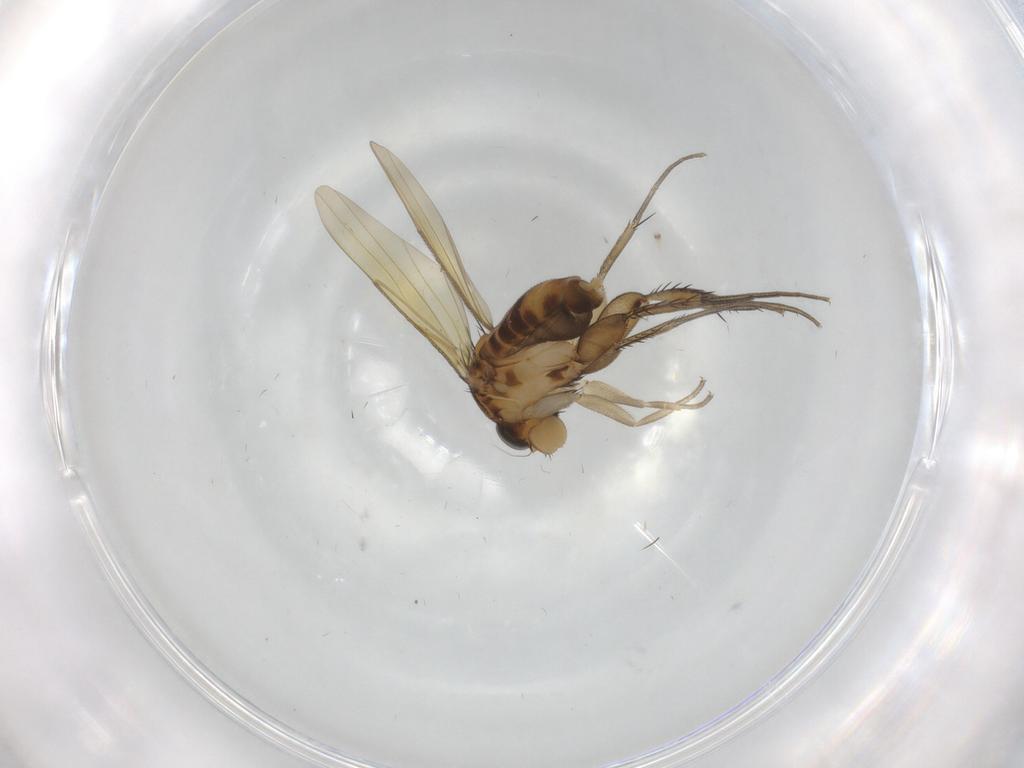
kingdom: Animalia
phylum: Arthropoda
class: Insecta
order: Diptera
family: Phoridae
